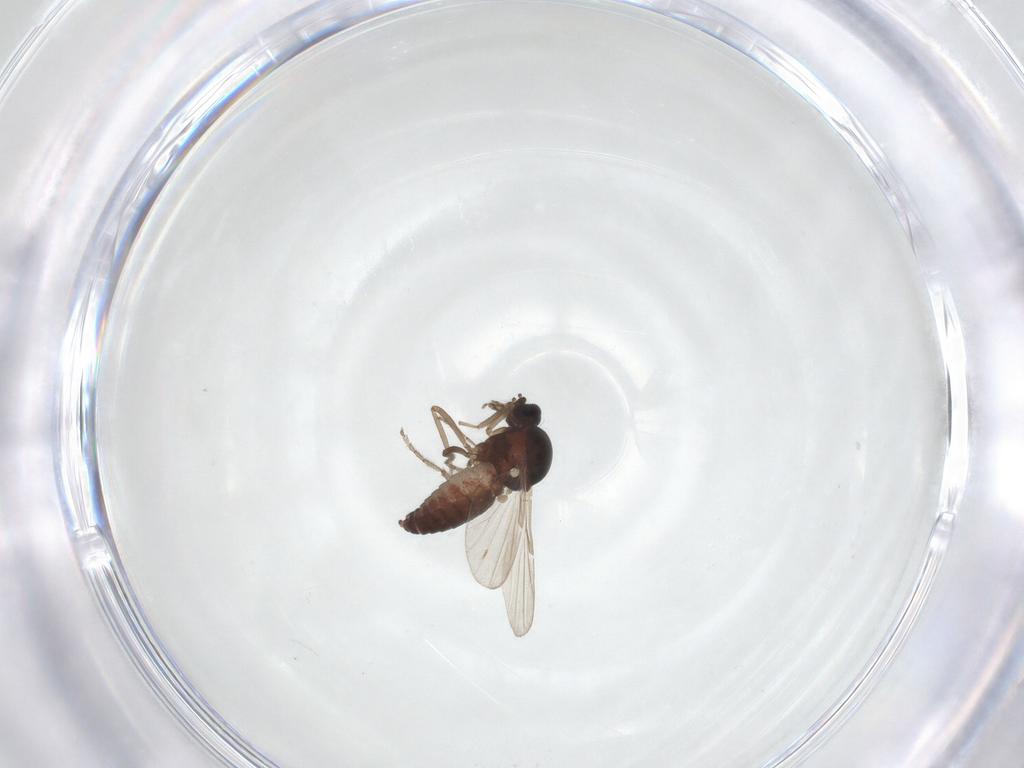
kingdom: Animalia
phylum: Arthropoda
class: Insecta
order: Diptera
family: Ceratopogonidae
